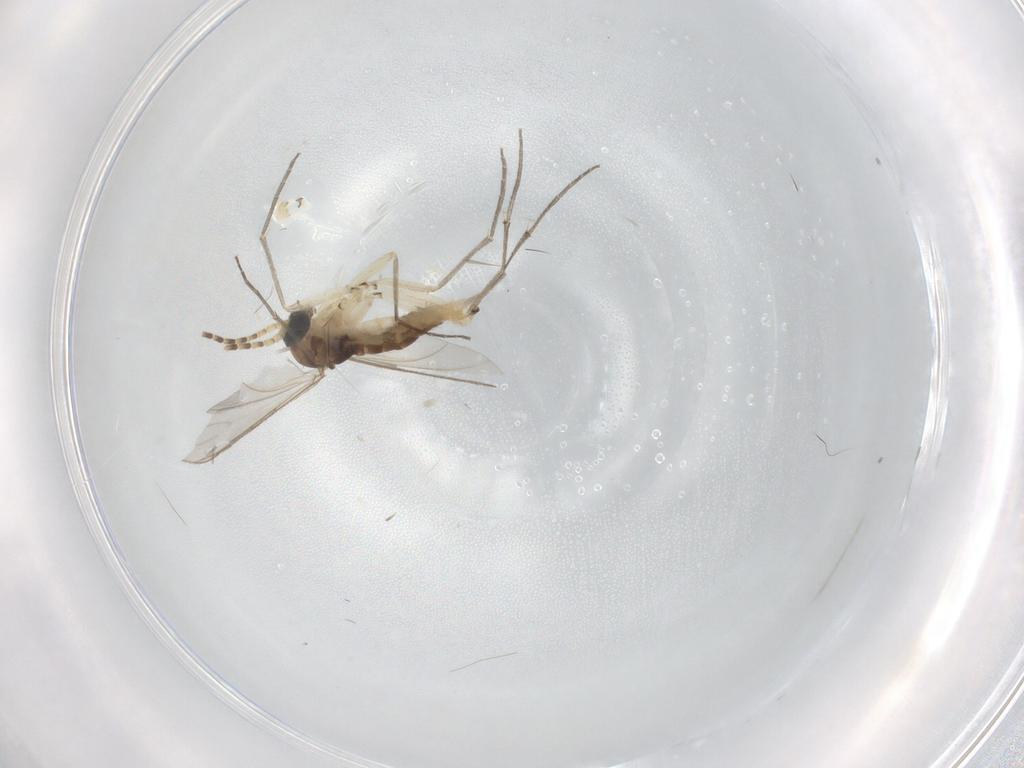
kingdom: Animalia
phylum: Arthropoda
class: Insecta
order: Diptera
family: Sciaridae
